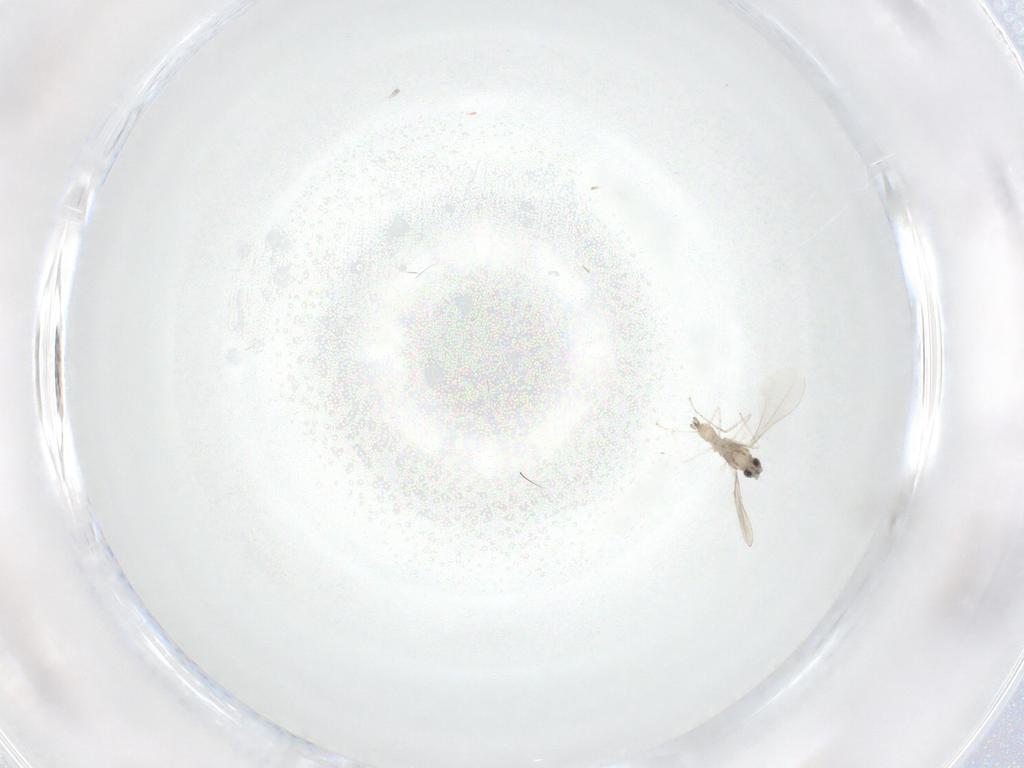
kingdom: Animalia
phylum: Arthropoda
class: Insecta
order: Diptera
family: Cecidomyiidae
